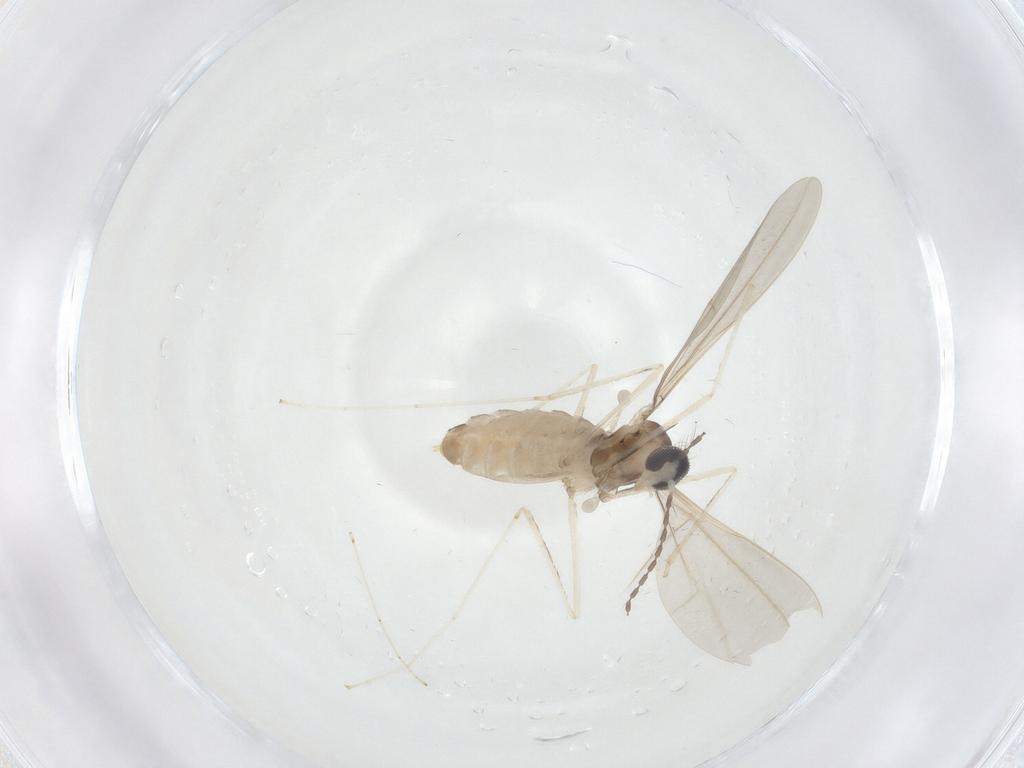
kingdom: Animalia
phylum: Arthropoda
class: Insecta
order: Diptera
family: Cecidomyiidae
